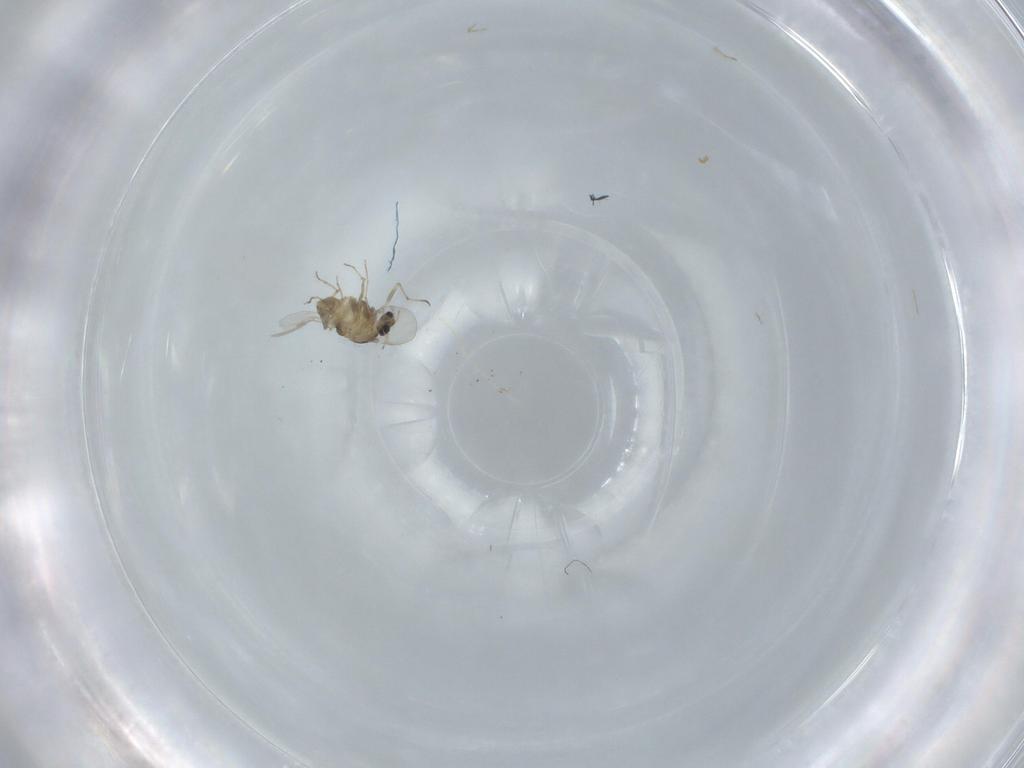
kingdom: Animalia
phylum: Arthropoda
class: Insecta
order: Diptera
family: Chironomidae
